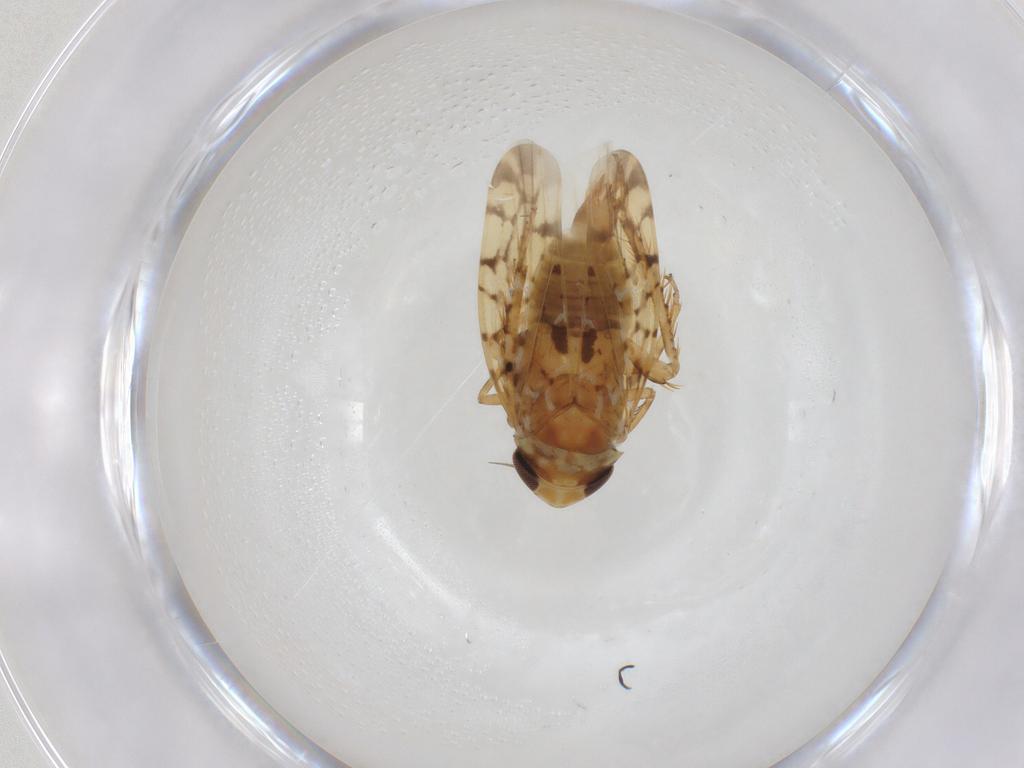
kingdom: Animalia
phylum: Arthropoda
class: Insecta
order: Hemiptera
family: Cicadellidae
